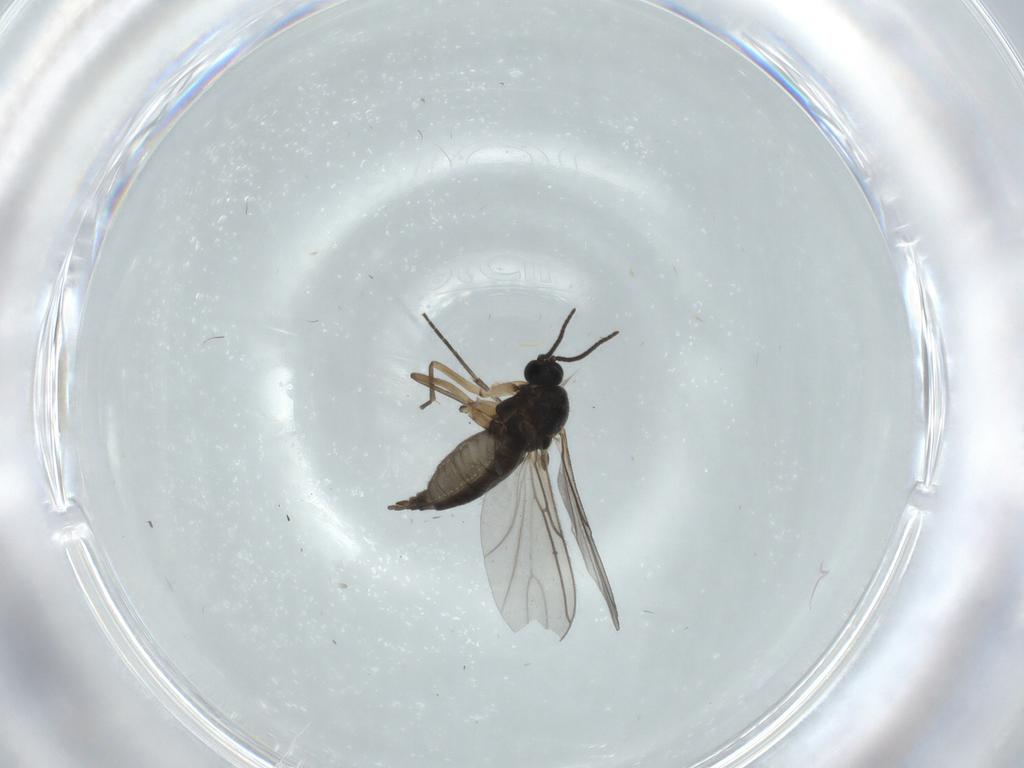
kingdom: Animalia
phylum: Arthropoda
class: Insecta
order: Diptera
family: Sciaridae
